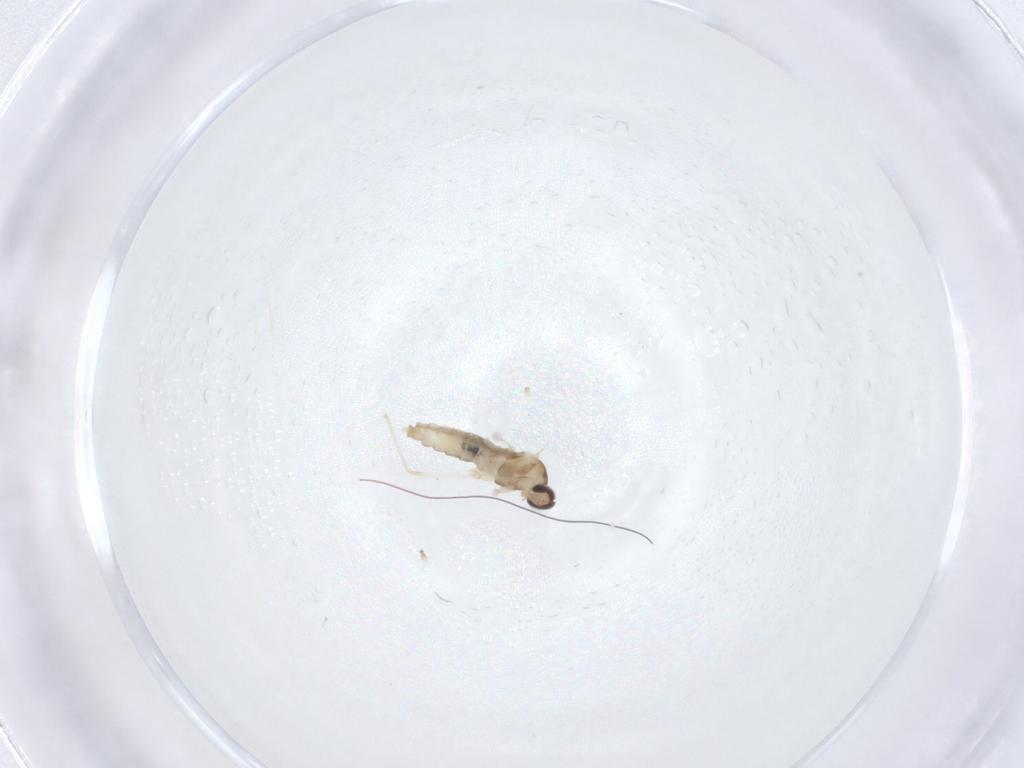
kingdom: Animalia
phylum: Arthropoda
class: Insecta
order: Diptera
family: Cecidomyiidae
